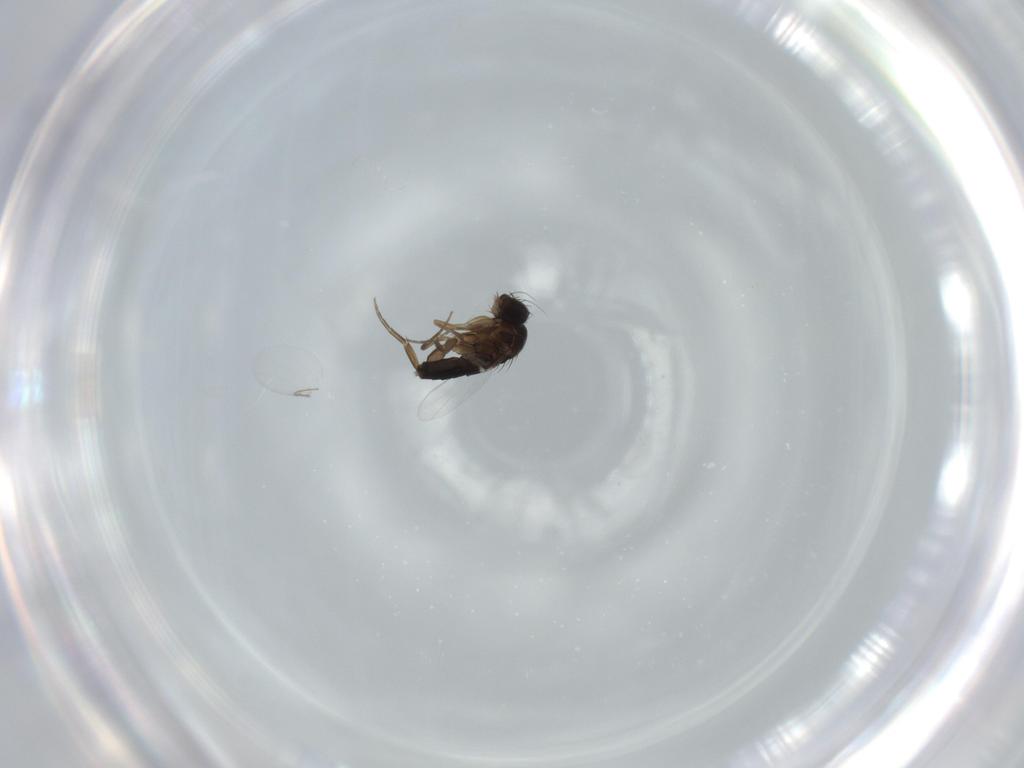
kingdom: Animalia
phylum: Arthropoda
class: Insecta
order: Diptera
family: Phoridae
